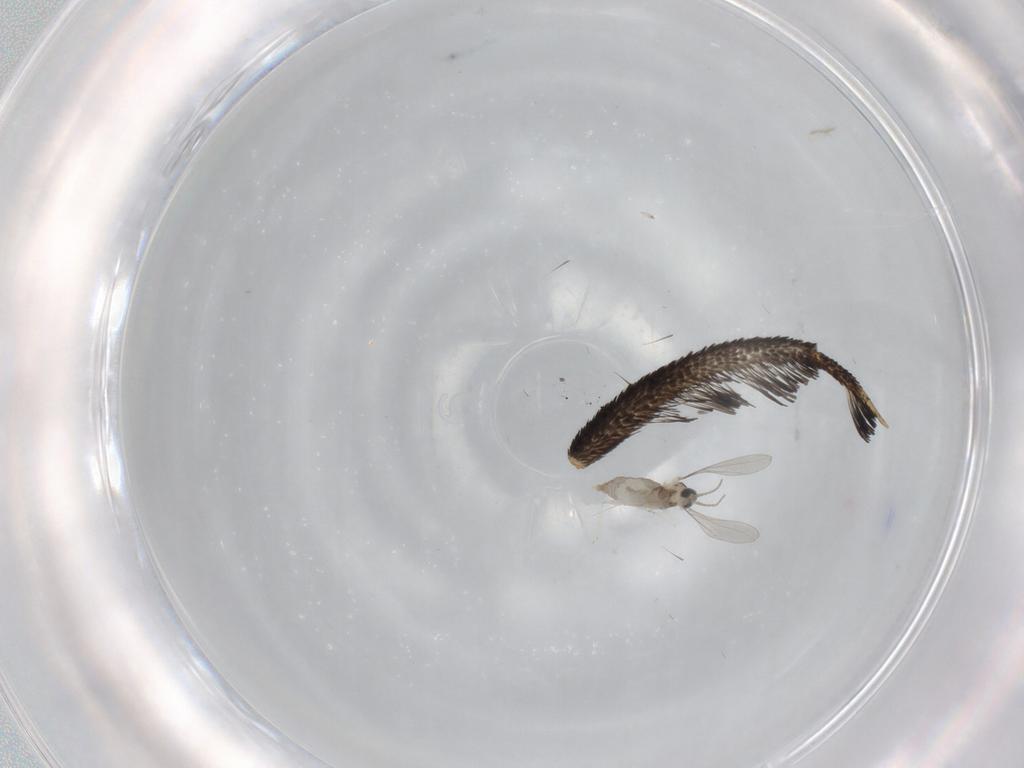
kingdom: Animalia
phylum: Arthropoda
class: Insecta
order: Diptera
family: Cecidomyiidae
